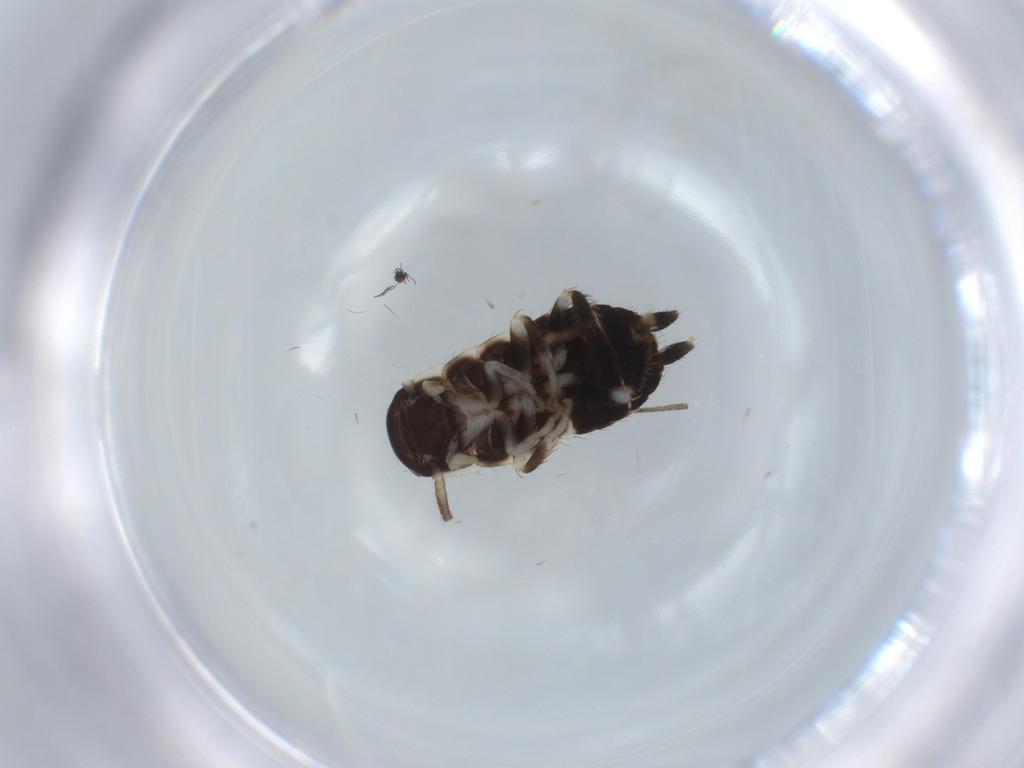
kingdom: Animalia
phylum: Arthropoda
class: Insecta
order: Blattodea
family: Ectobiidae
